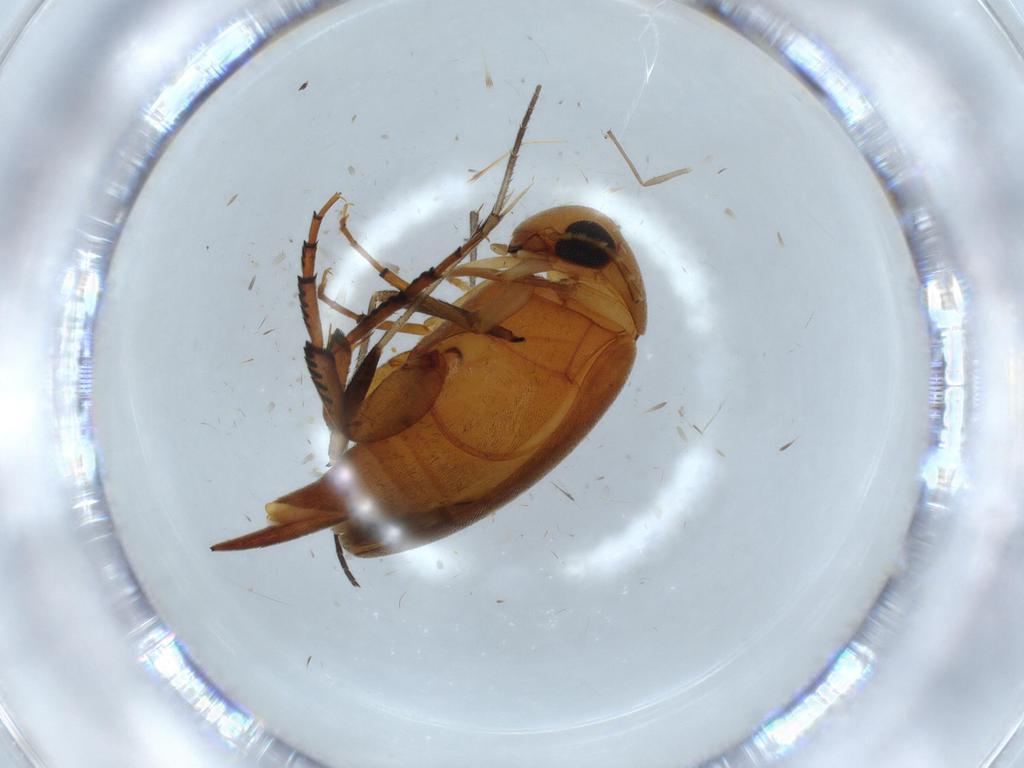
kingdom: Animalia
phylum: Arthropoda
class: Insecta
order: Coleoptera
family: Mordellidae
